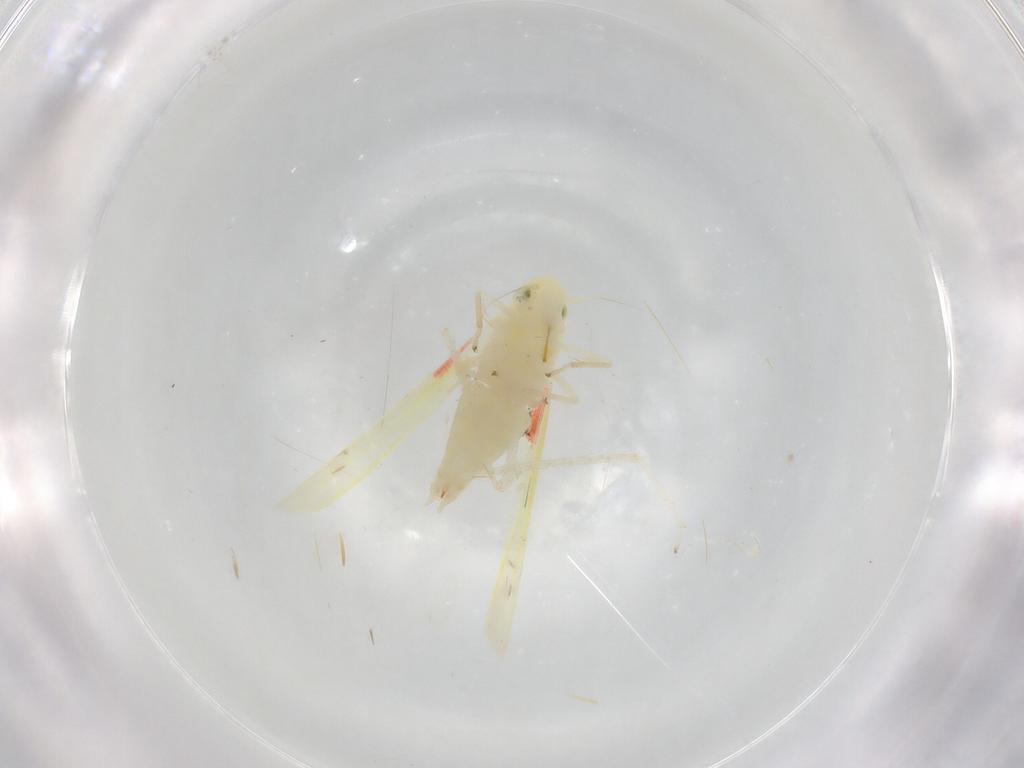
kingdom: Animalia
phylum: Arthropoda
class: Insecta
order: Hemiptera
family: Cicadellidae
